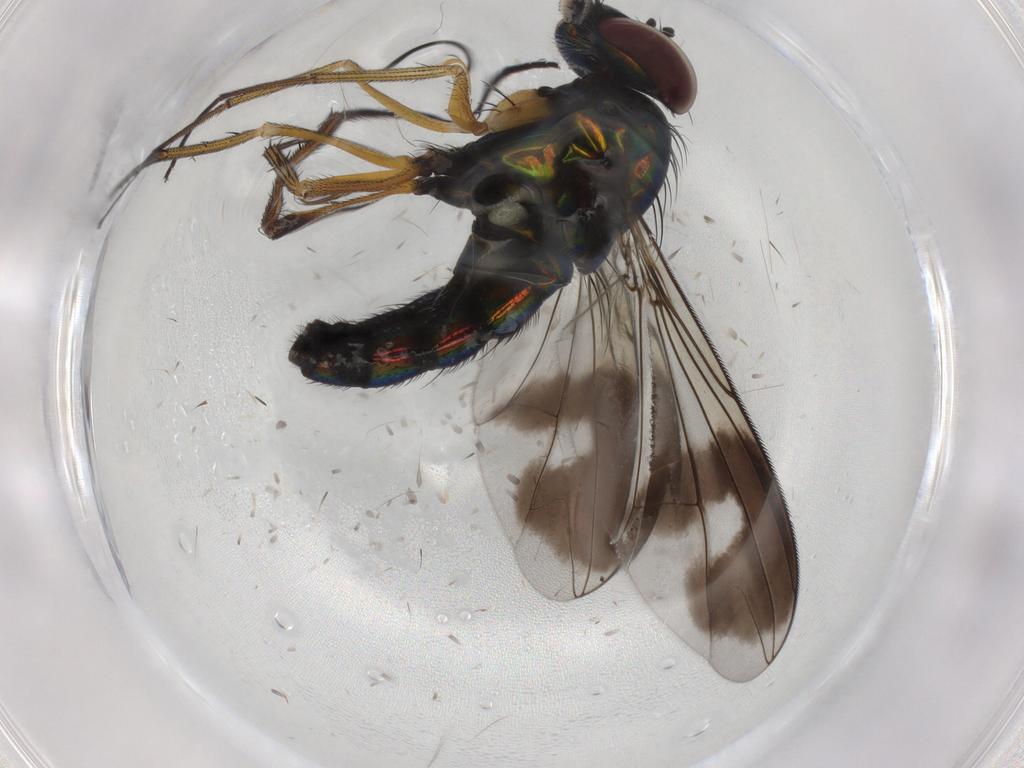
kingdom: Animalia
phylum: Arthropoda
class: Insecta
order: Diptera
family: Dolichopodidae
